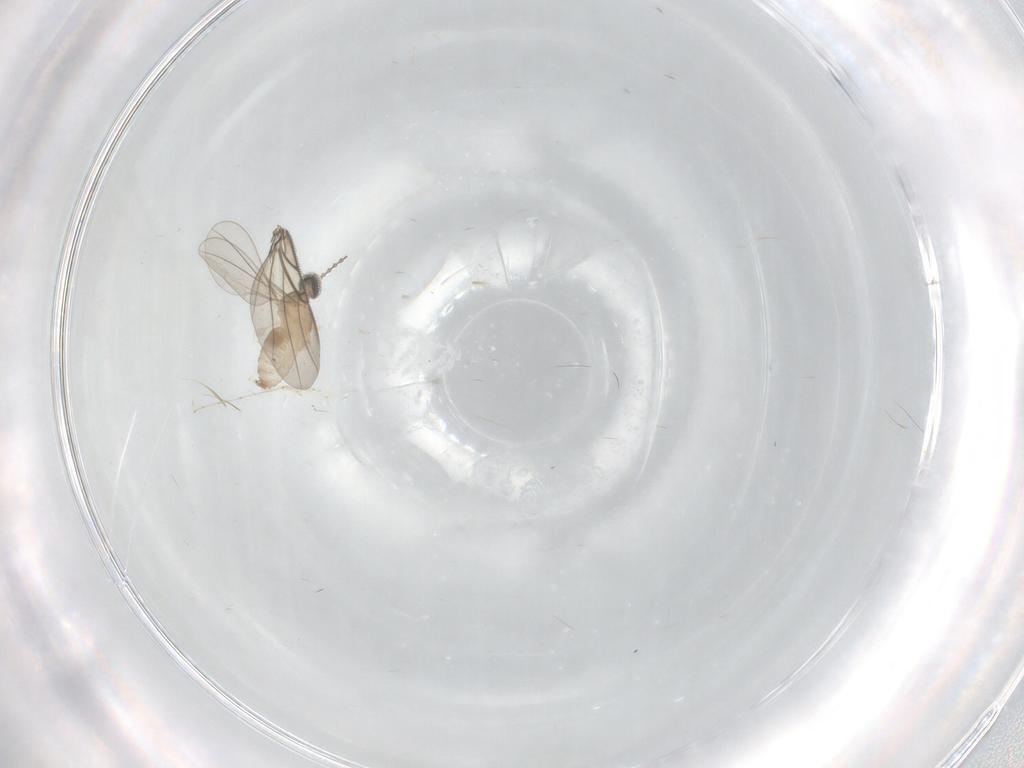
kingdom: Animalia
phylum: Arthropoda
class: Insecta
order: Diptera
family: Cecidomyiidae
